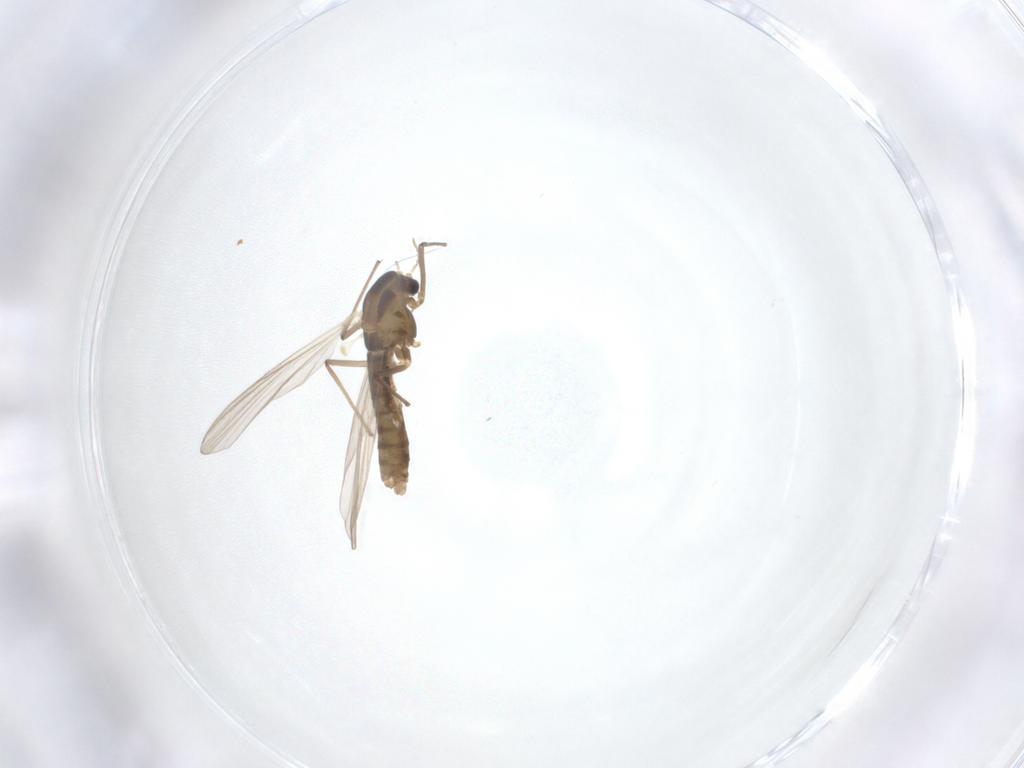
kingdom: Animalia
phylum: Arthropoda
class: Insecta
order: Diptera
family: Chironomidae
